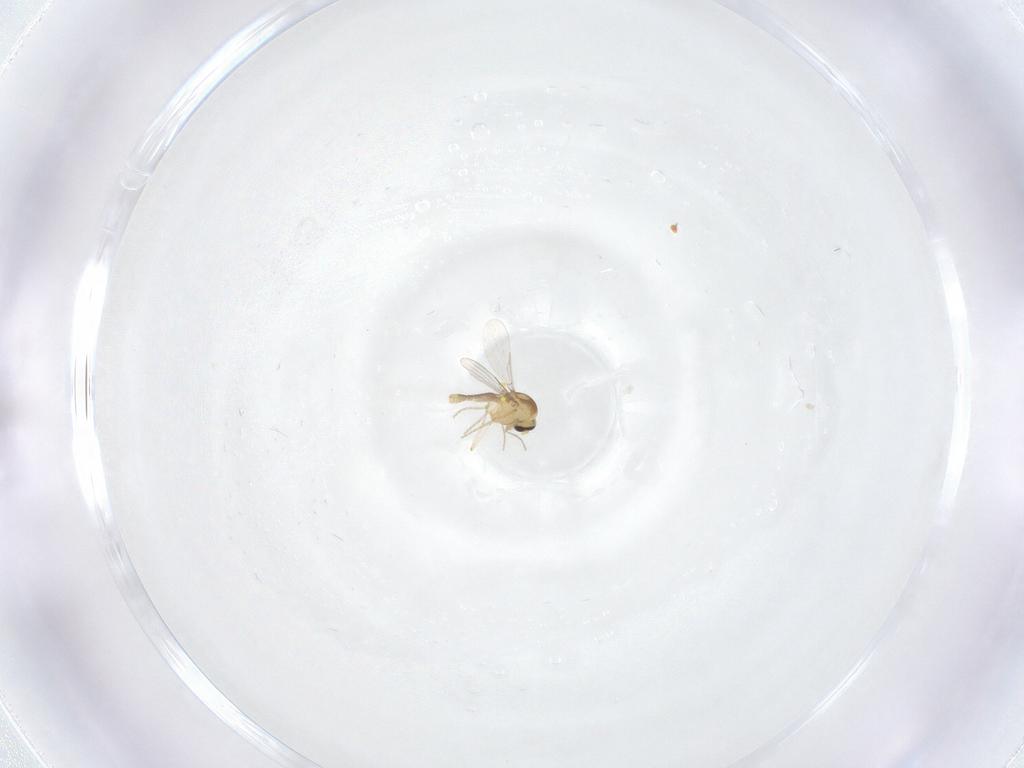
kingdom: Animalia
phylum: Arthropoda
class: Insecta
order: Diptera
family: Ceratopogonidae
